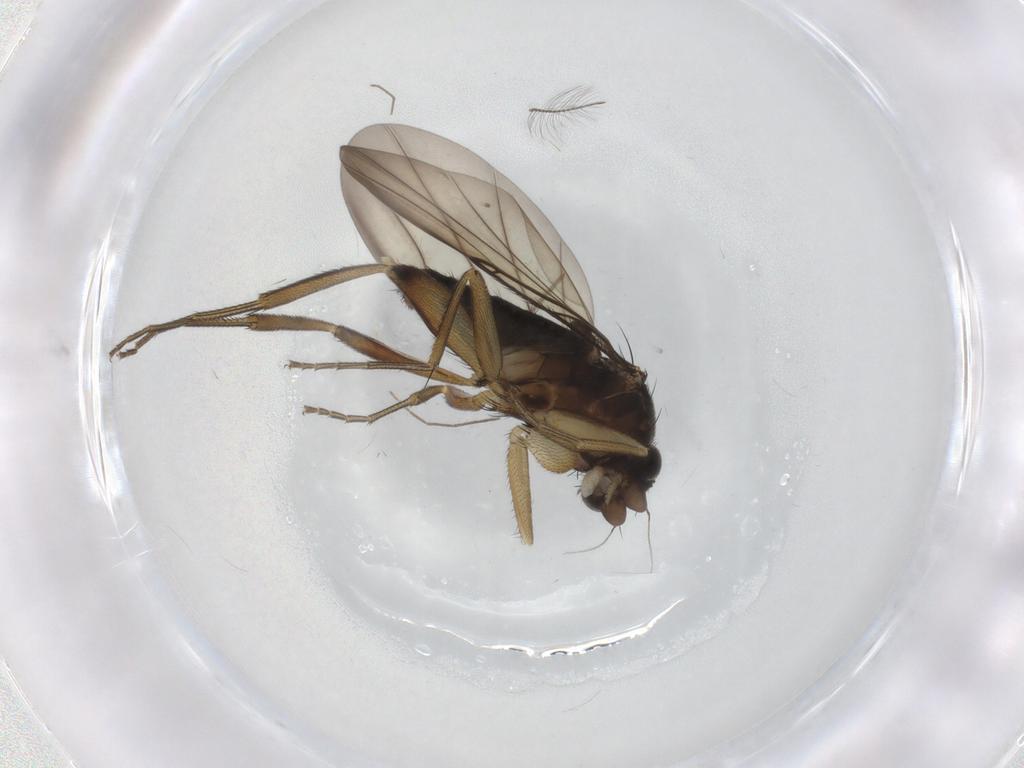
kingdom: Animalia
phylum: Arthropoda
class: Insecta
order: Diptera
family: Phoridae
